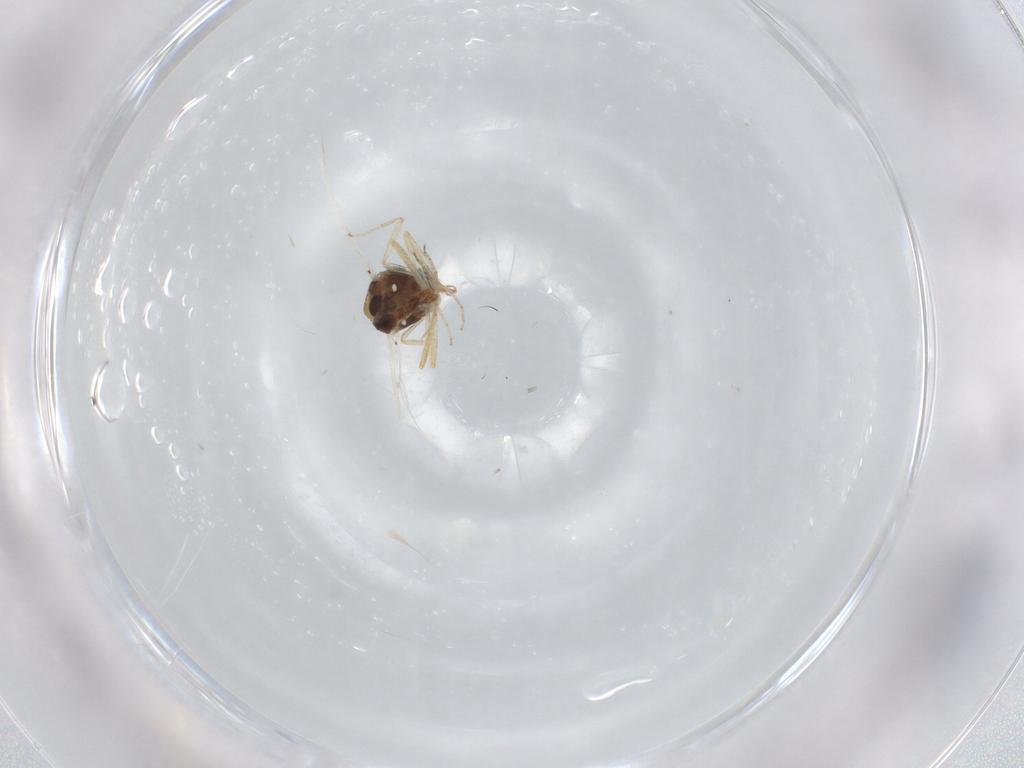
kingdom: Animalia
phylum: Arthropoda
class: Insecta
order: Diptera
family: Ceratopogonidae
